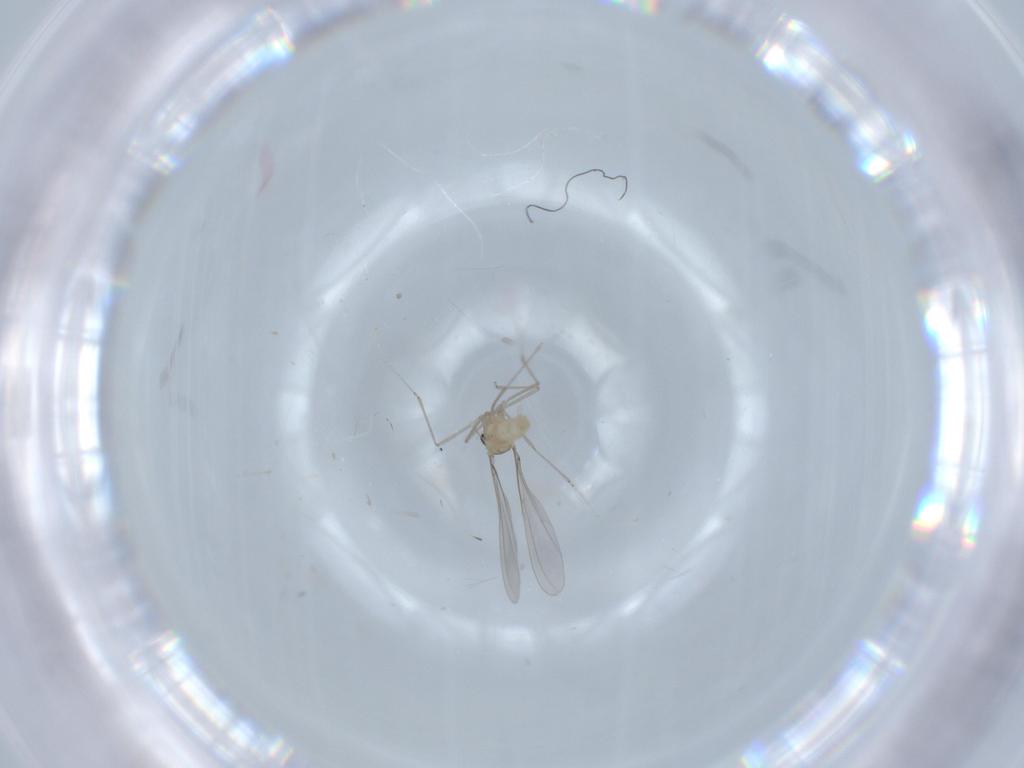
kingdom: Animalia
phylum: Arthropoda
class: Insecta
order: Diptera
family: Cecidomyiidae
